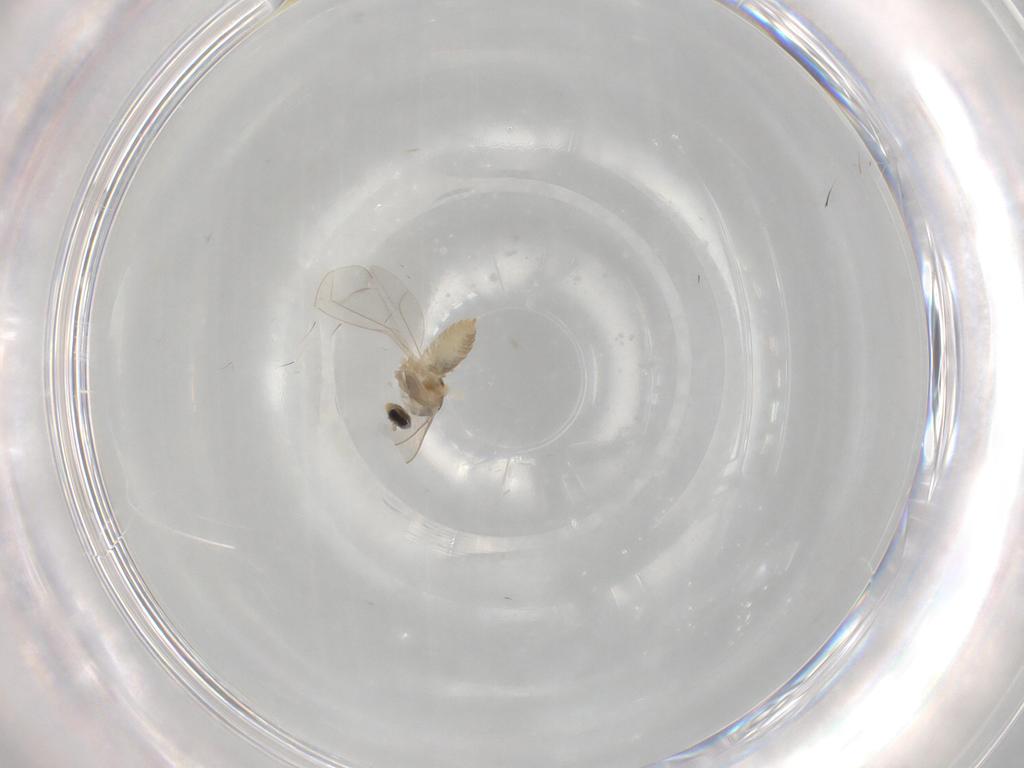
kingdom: Animalia
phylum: Arthropoda
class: Insecta
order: Diptera
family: Cecidomyiidae
